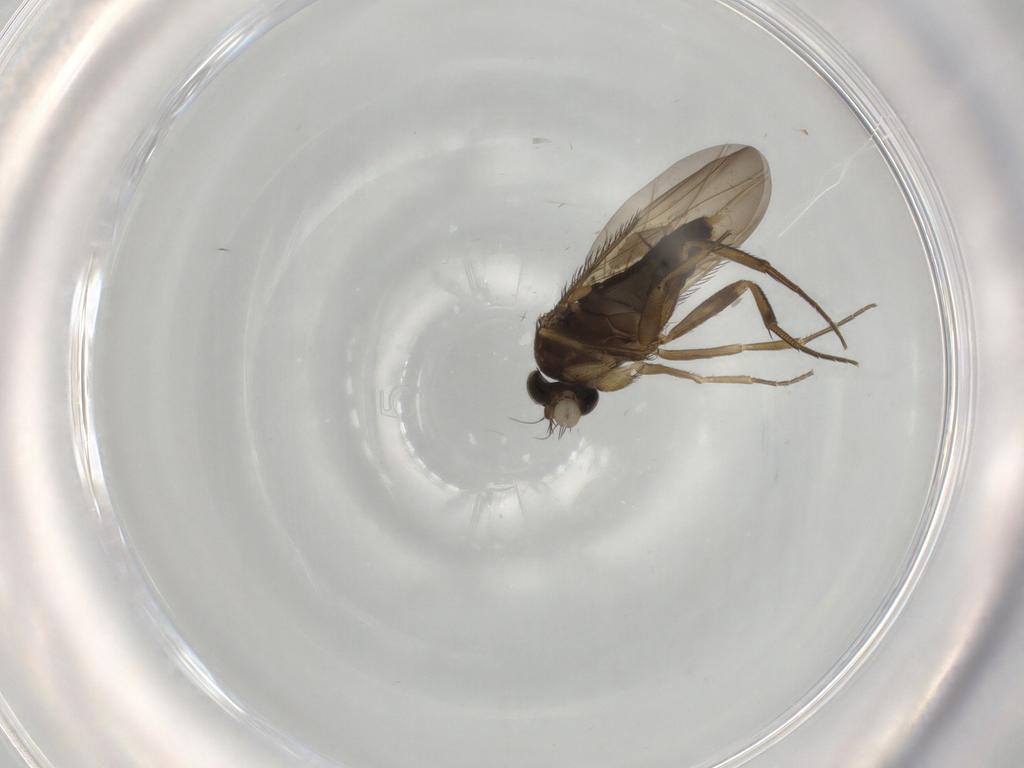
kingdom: Animalia
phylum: Arthropoda
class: Insecta
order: Diptera
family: Phoridae
